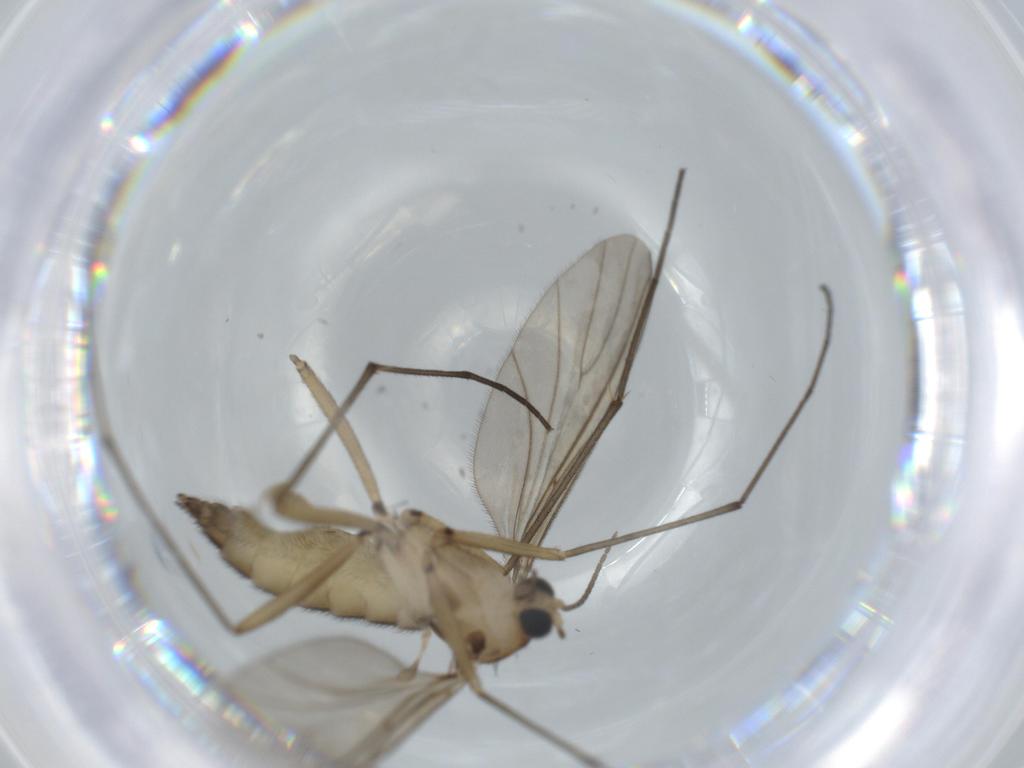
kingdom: Animalia
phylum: Arthropoda
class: Insecta
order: Diptera
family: Sciaridae
